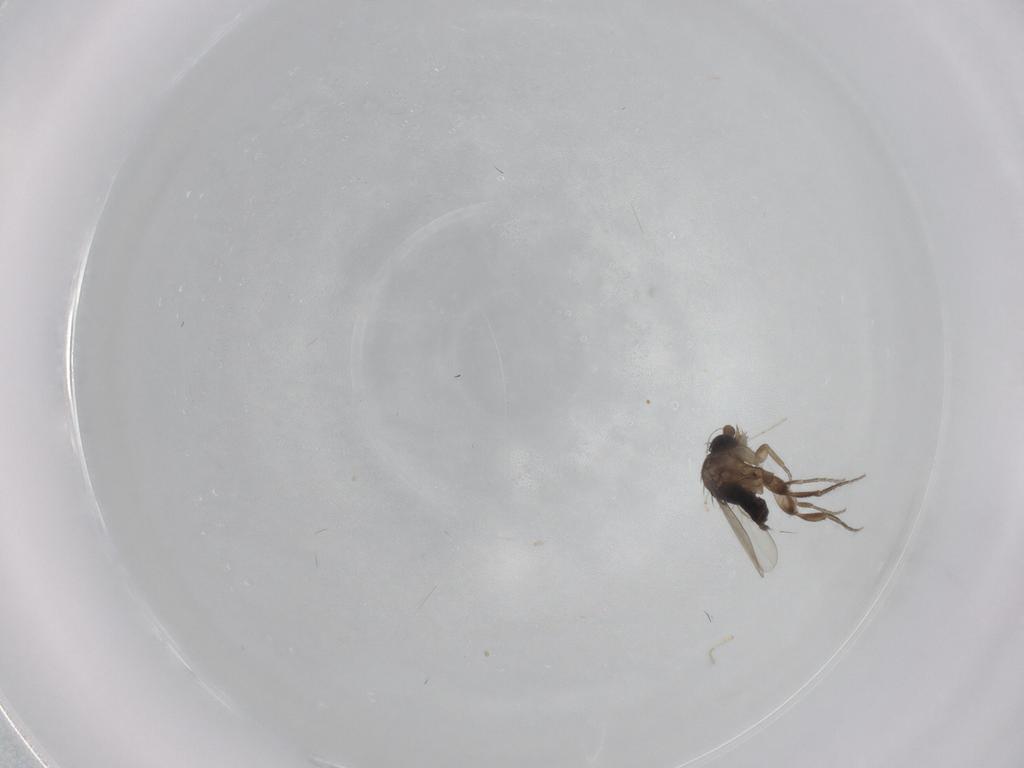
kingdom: Animalia
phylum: Arthropoda
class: Insecta
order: Diptera
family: Phoridae
